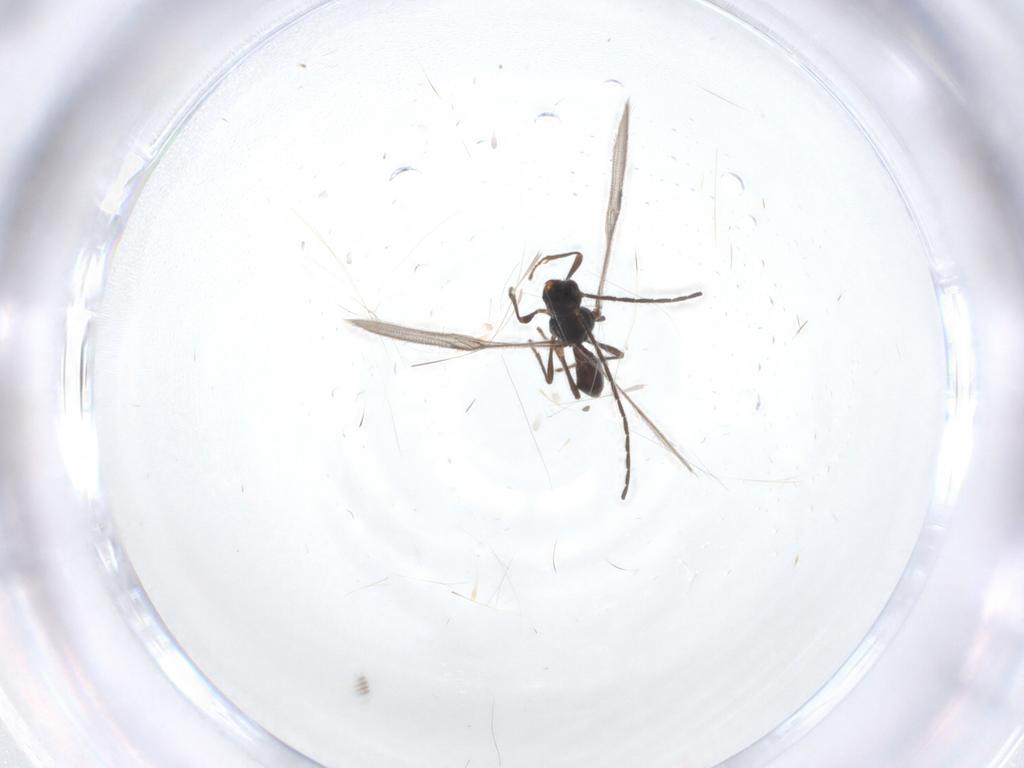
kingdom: Animalia
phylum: Arthropoda
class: Insecta
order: Hymenoptera
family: Braconidae
